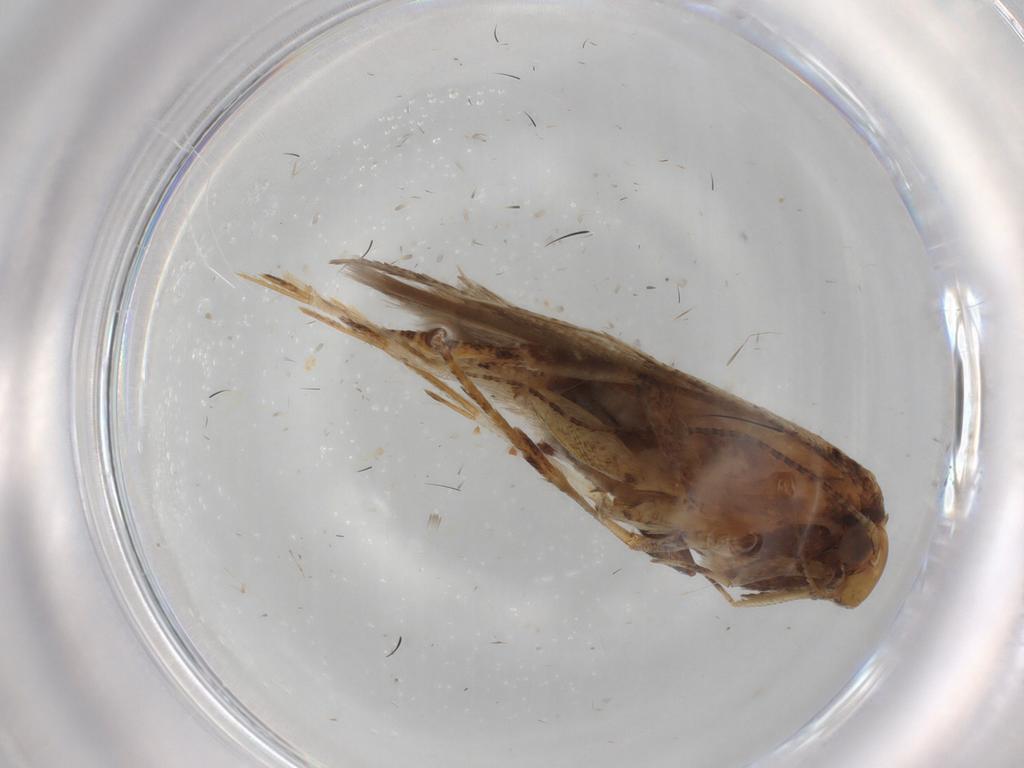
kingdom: Animalia
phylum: Arthropoda
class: Insecta
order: Lepidoptera
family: Gelechiidae
